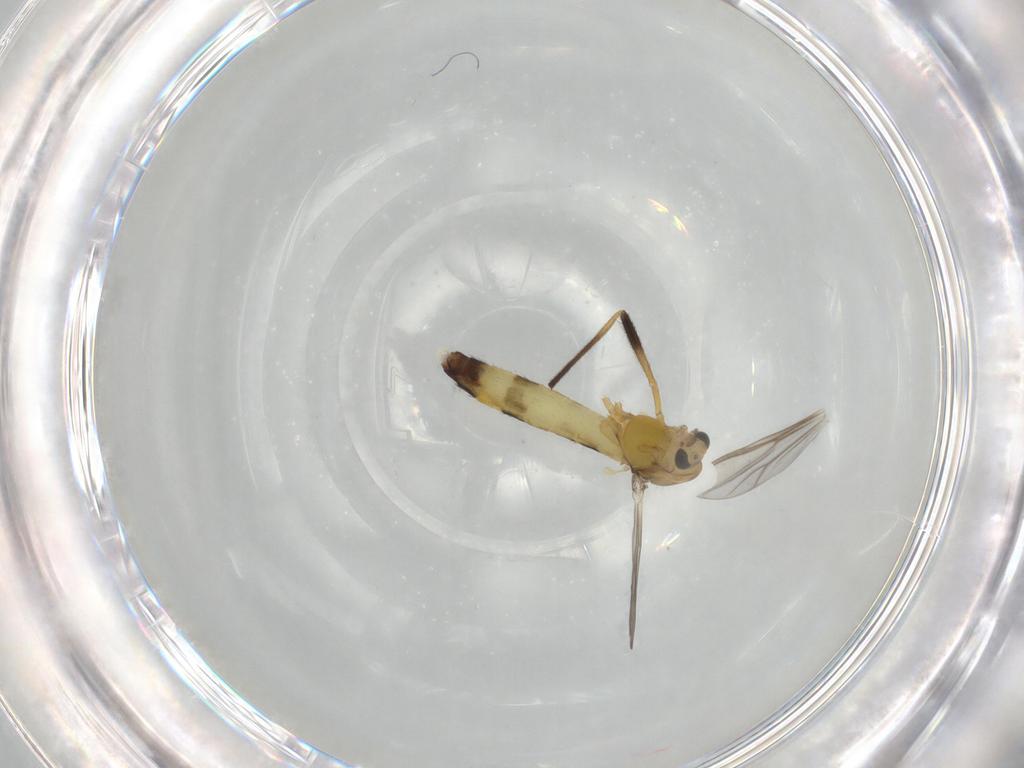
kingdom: Animalia
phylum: Arthropoda
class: Insecta
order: Diptera
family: Chironomidae
